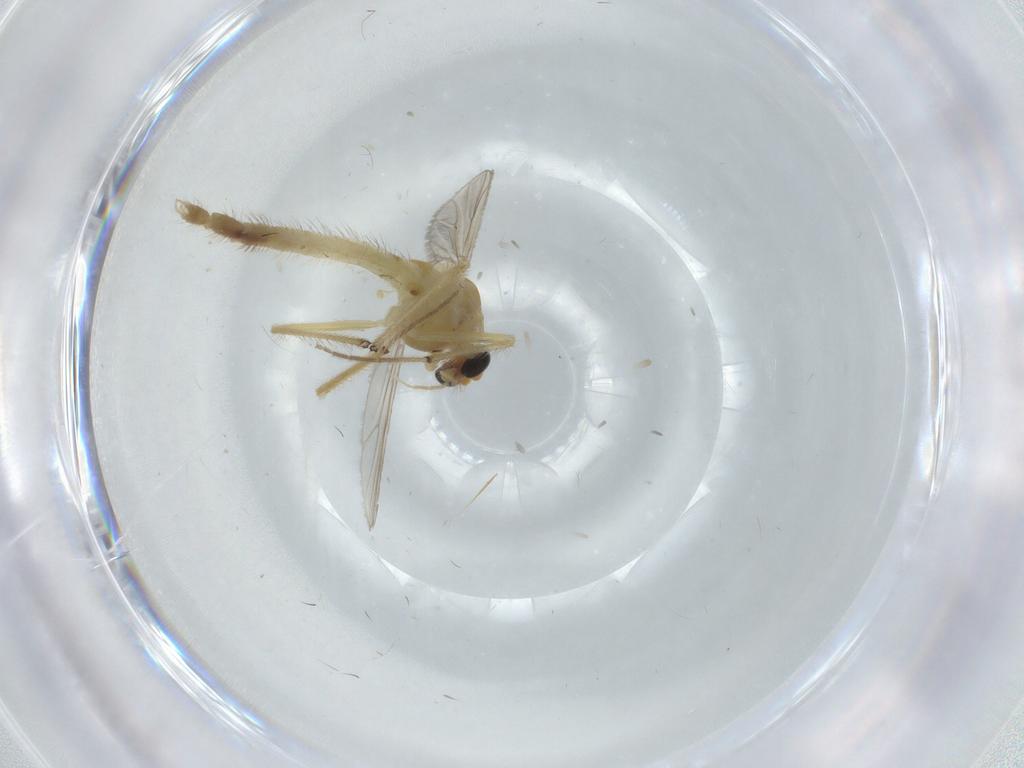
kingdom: Animalia
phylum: Arthropoda
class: Insecta
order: Diptera
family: Chironomidae
